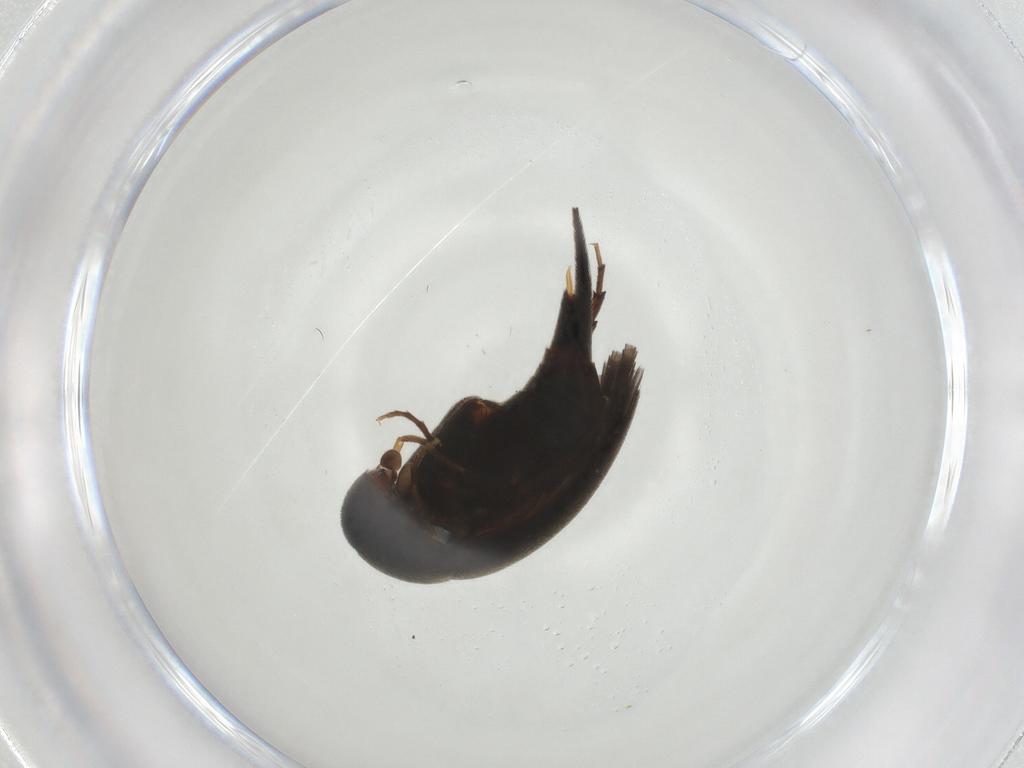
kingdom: Animalia
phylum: Arthropoda
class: Insecta
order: Coleoptera
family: Mordellidae
